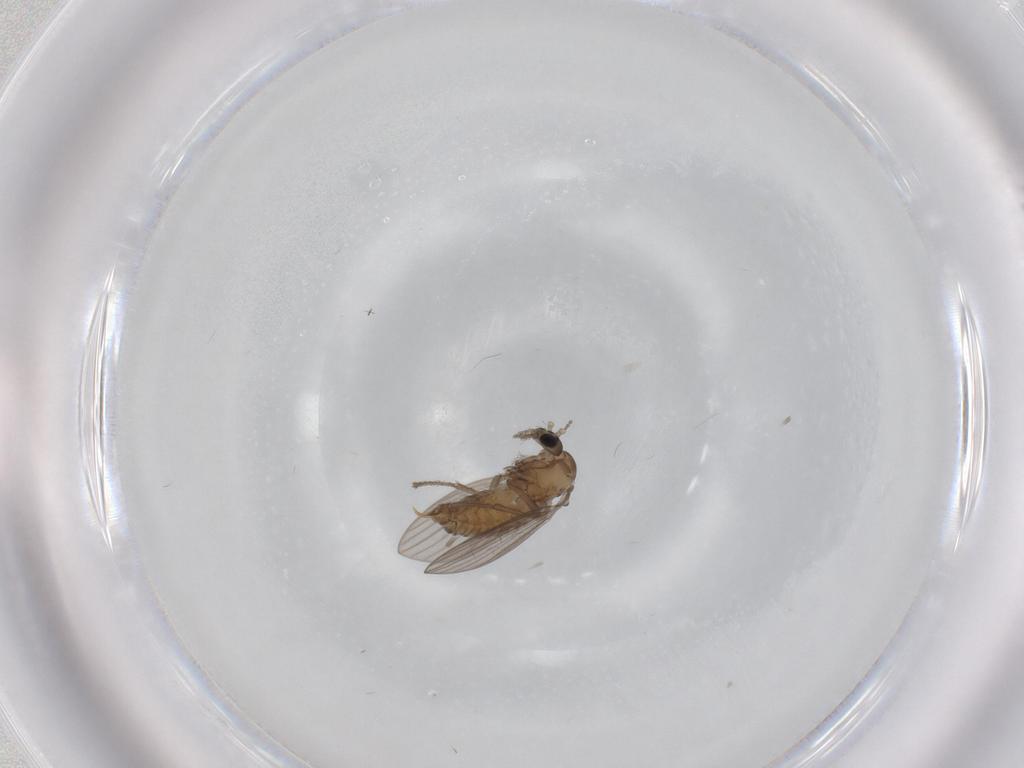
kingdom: Animalia
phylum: Arthropoda
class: Insecta
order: Diptera
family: Psychodidae
